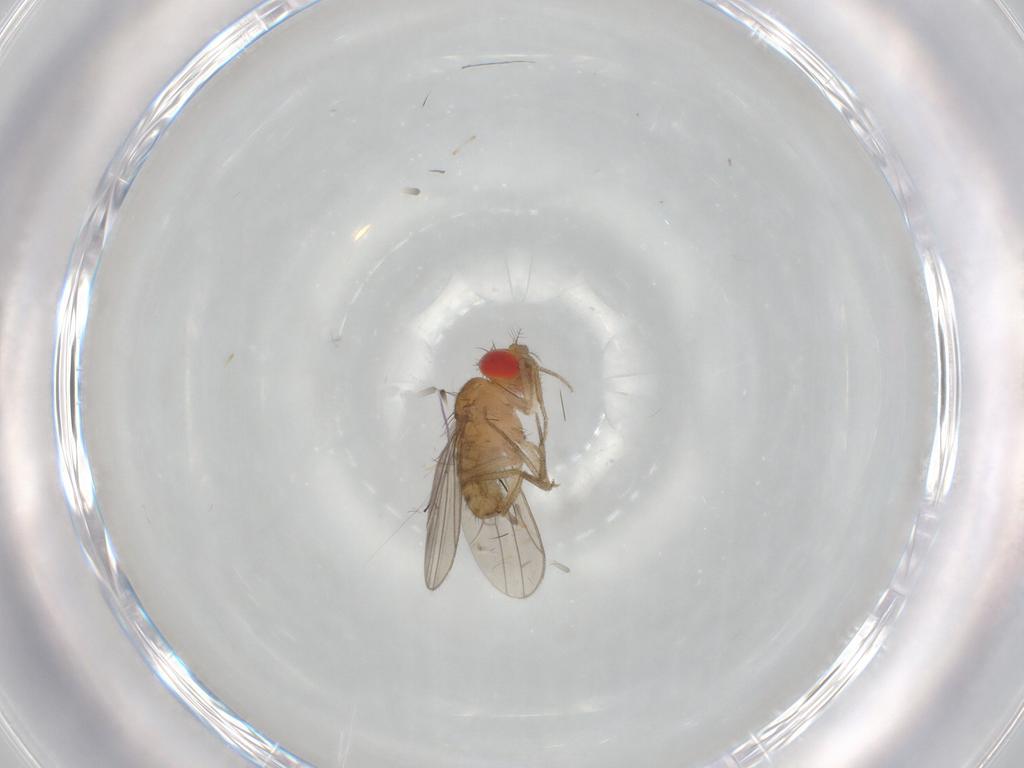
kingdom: Animalia
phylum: Arthropoda
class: Insecta
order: Diptera
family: Drosophilidae
